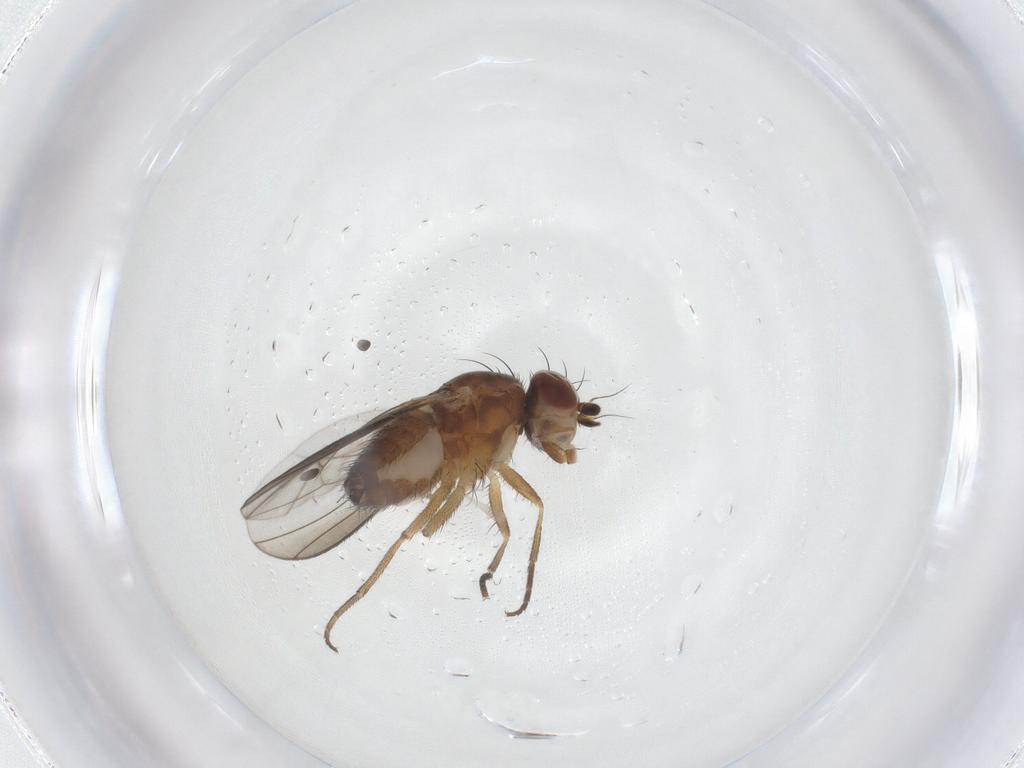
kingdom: Animalia
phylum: Arthropoda
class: Insecta
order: Diptera
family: Heleomyzidae
